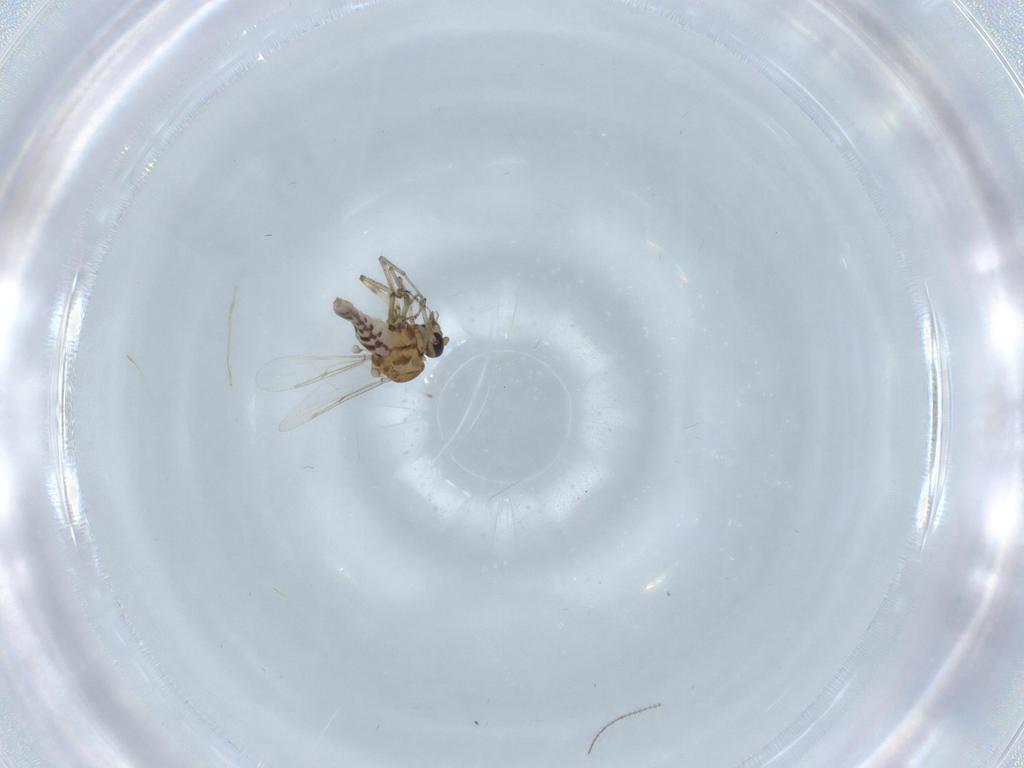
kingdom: Animalia
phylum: Arthropoda
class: Insecta
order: Diptera
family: Ceratopogonidae
